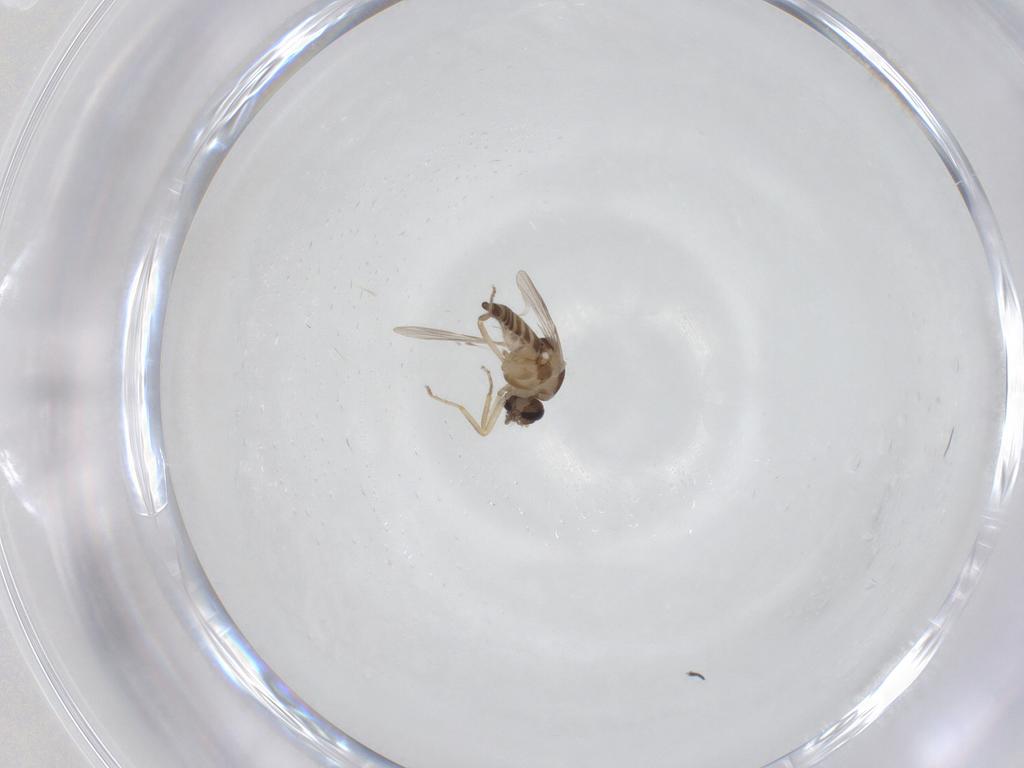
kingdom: Animalia
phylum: Arthropoda
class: Insecta
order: Diptera
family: Ceratopogonidae
